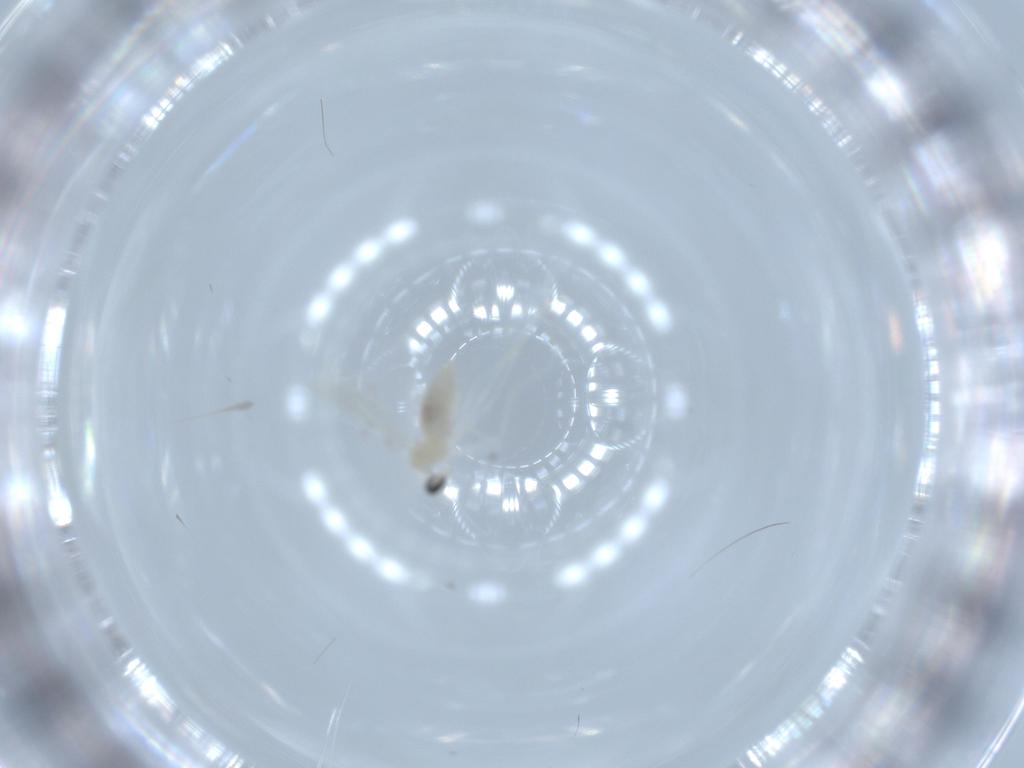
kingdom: Animalia
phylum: Arthropoda
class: Insecta
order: Diptera
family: Cecidomyiidae
